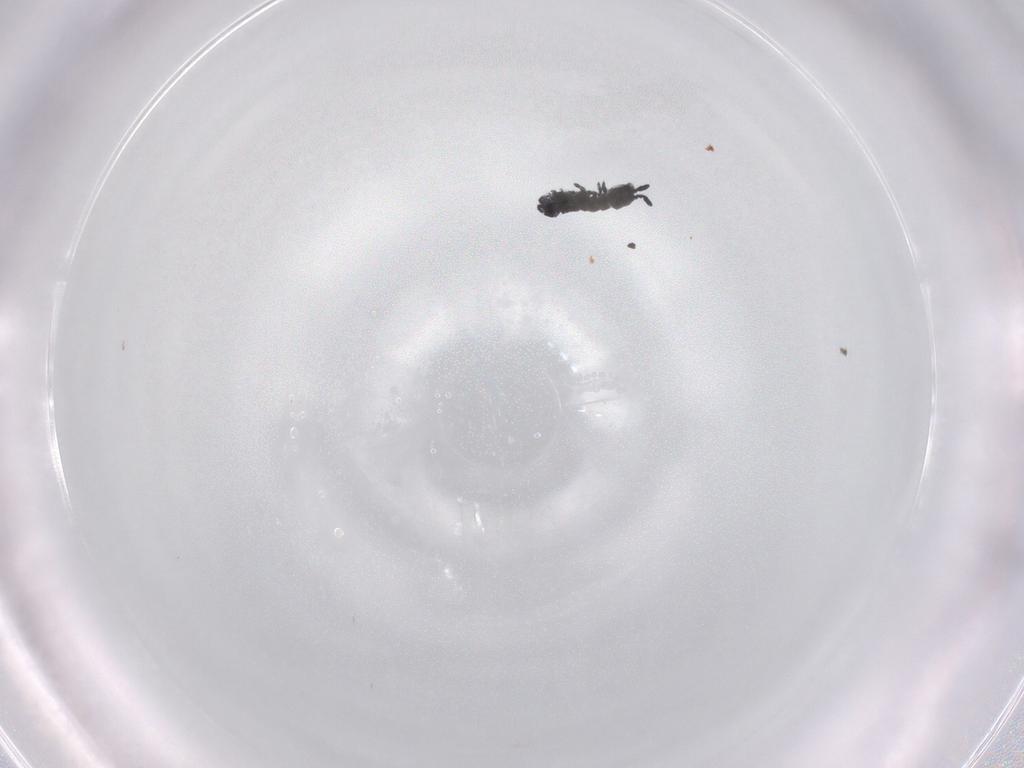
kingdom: Animalia
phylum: Arthropoda
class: Collembola
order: Poduromorpha
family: Hypogastruridae
